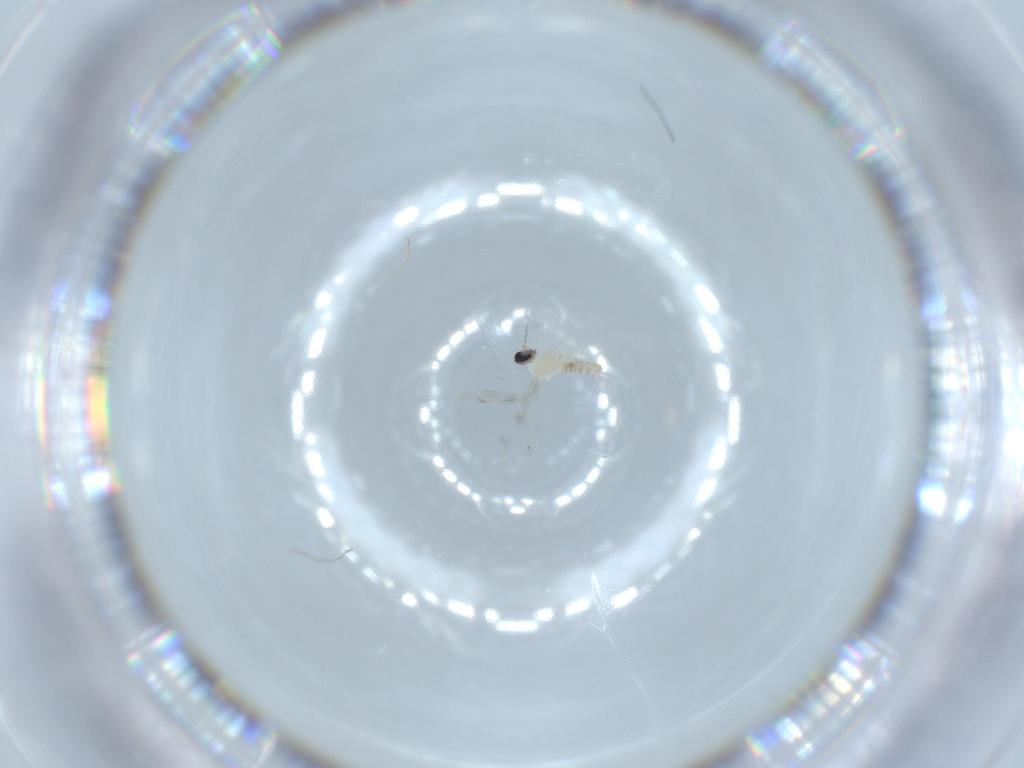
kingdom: Animalia
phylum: Arthropoda
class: Insecta
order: Diptera
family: Cecidomyiidae
